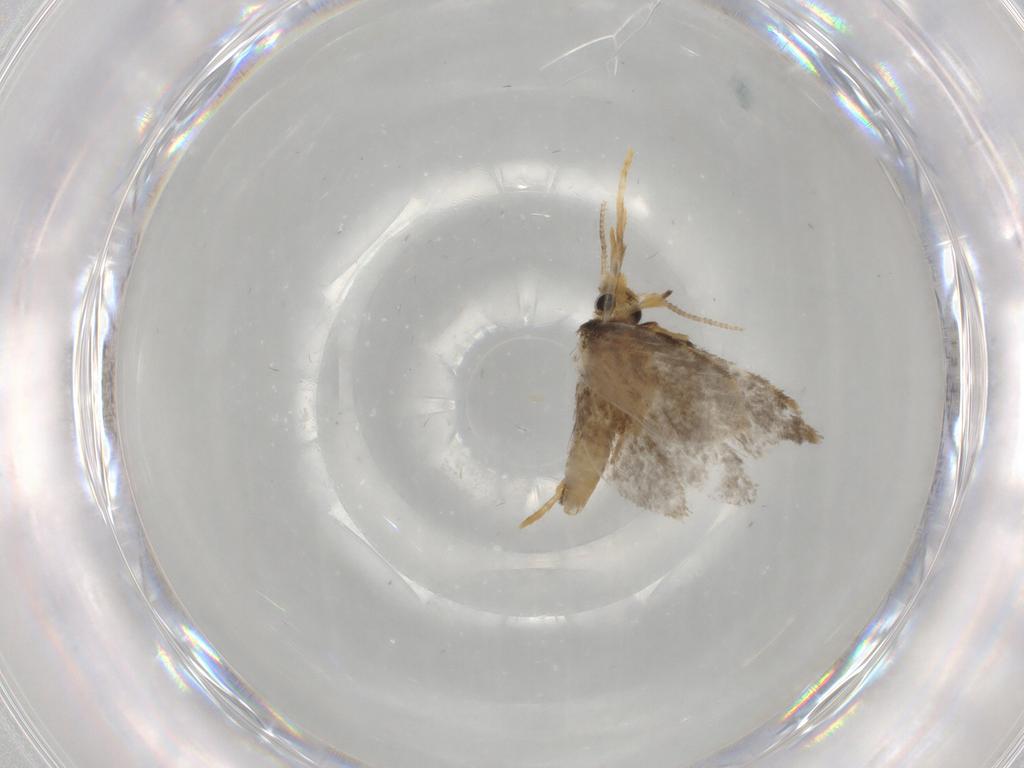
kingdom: Animalia
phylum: Arthropoda
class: Insecta
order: Lepidoptera
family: Psychidae
